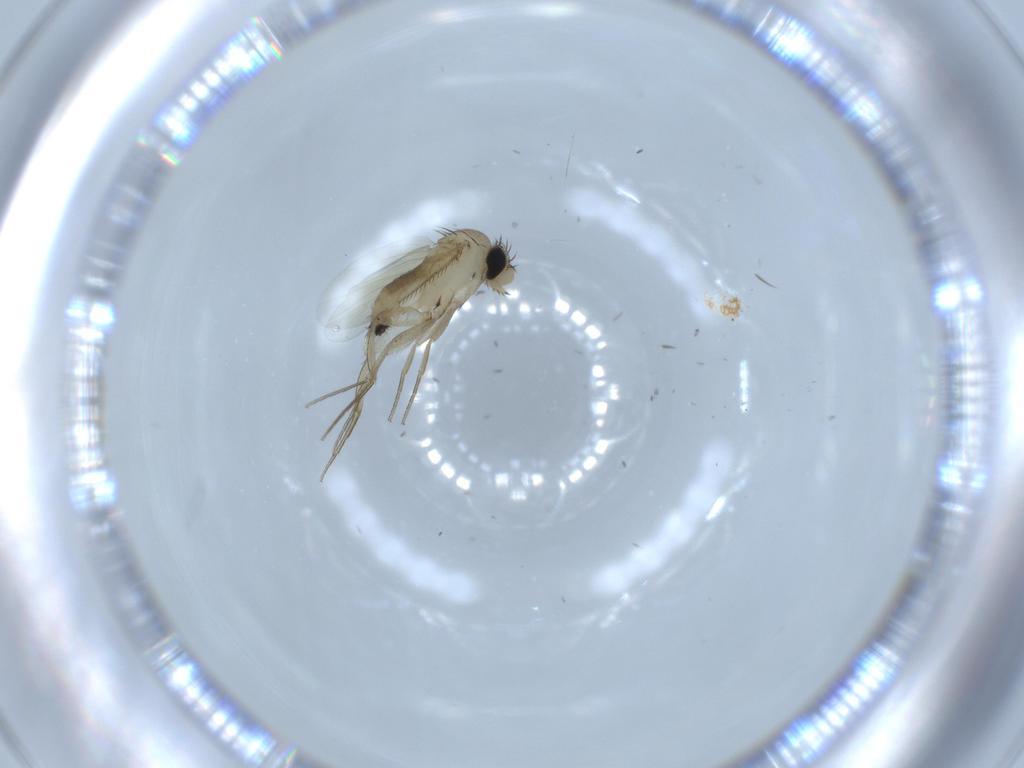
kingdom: Animalia
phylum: Arthropoda
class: Insecta
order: Diptera
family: Phoridae
